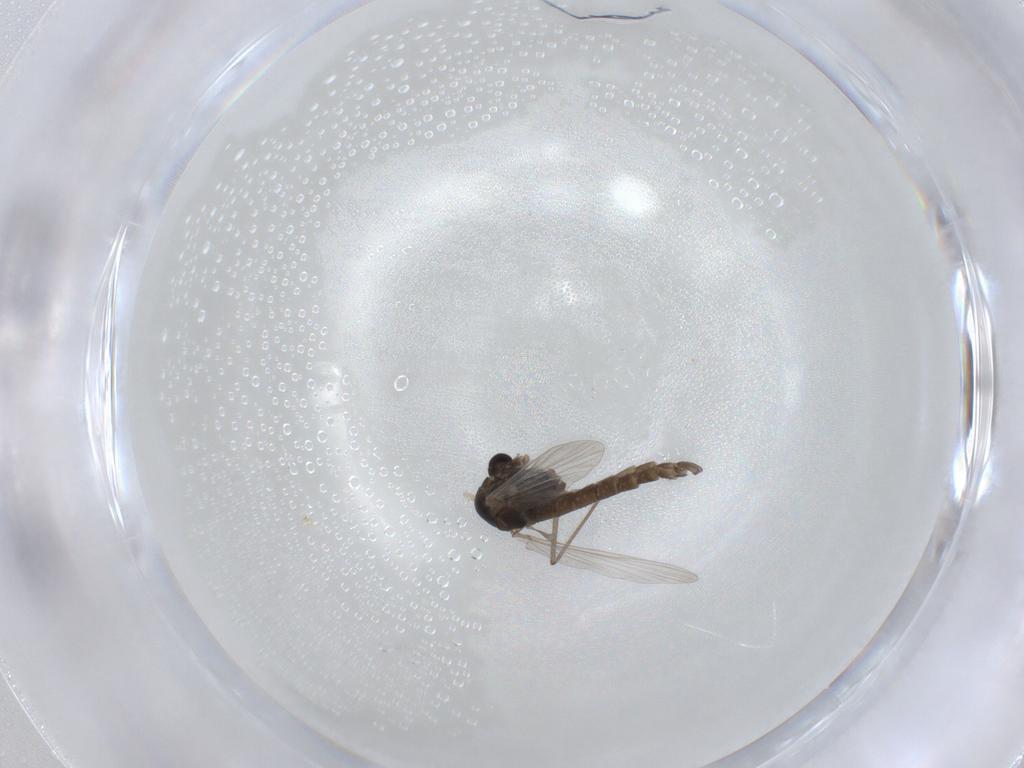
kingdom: Animalia
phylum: Arthropoda
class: Insecta
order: Diptera
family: Chironomidae
